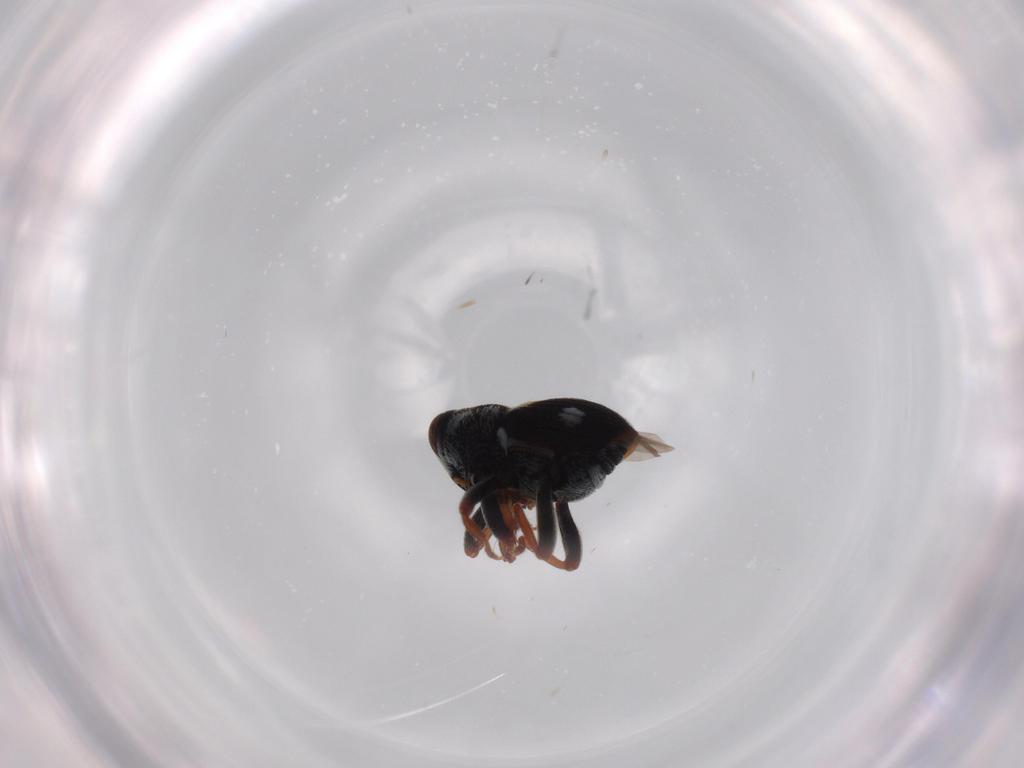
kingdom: Animalia
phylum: Arthropoda
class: Insecta
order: Coleoptera
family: Curculionidae
